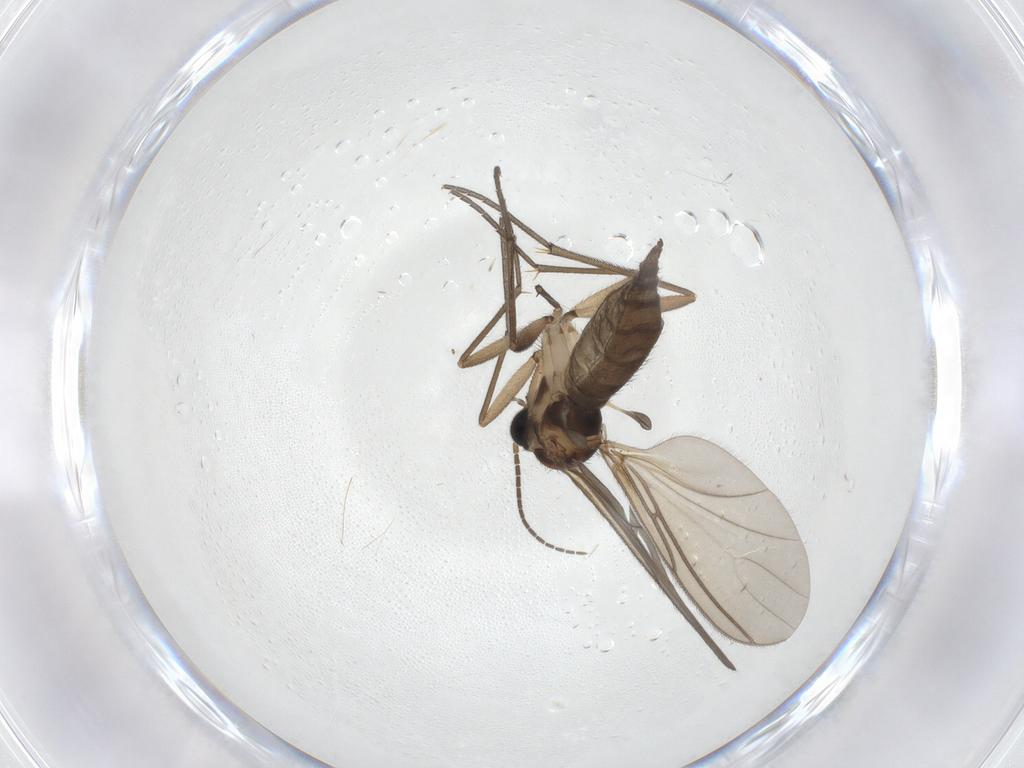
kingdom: Animalia
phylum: Arthropoda
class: Insecta
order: Diptera
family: Sciaridae
